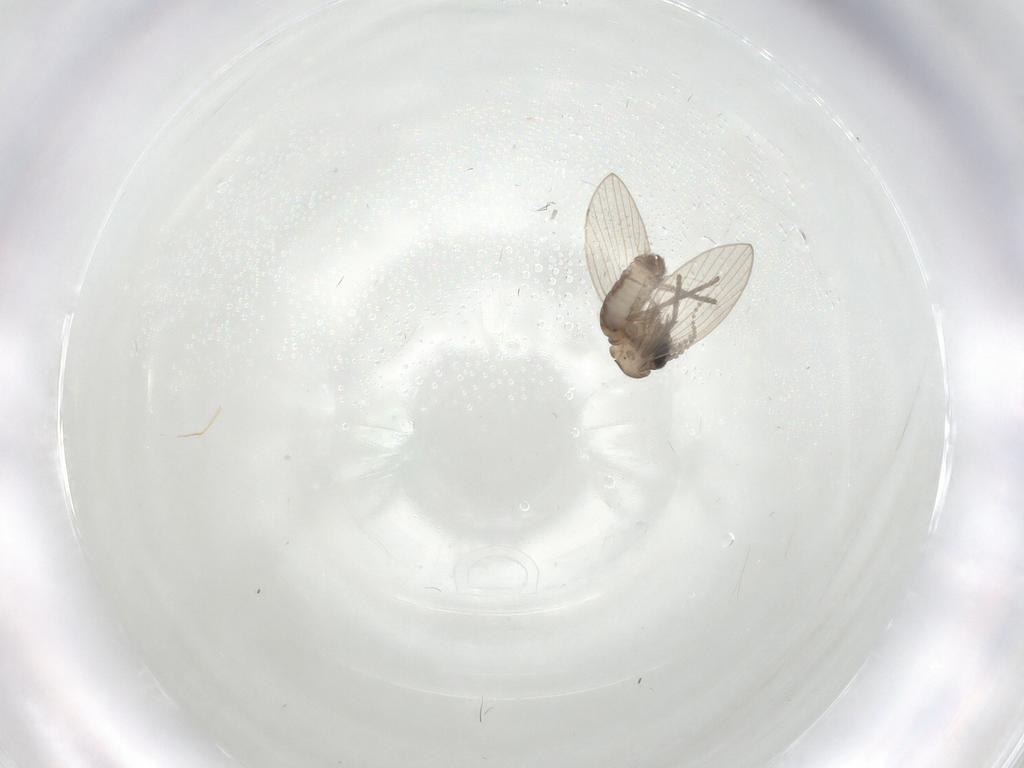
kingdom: Animalia
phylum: Arthropoda
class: Insecta
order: Diptera
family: Psychodidae
